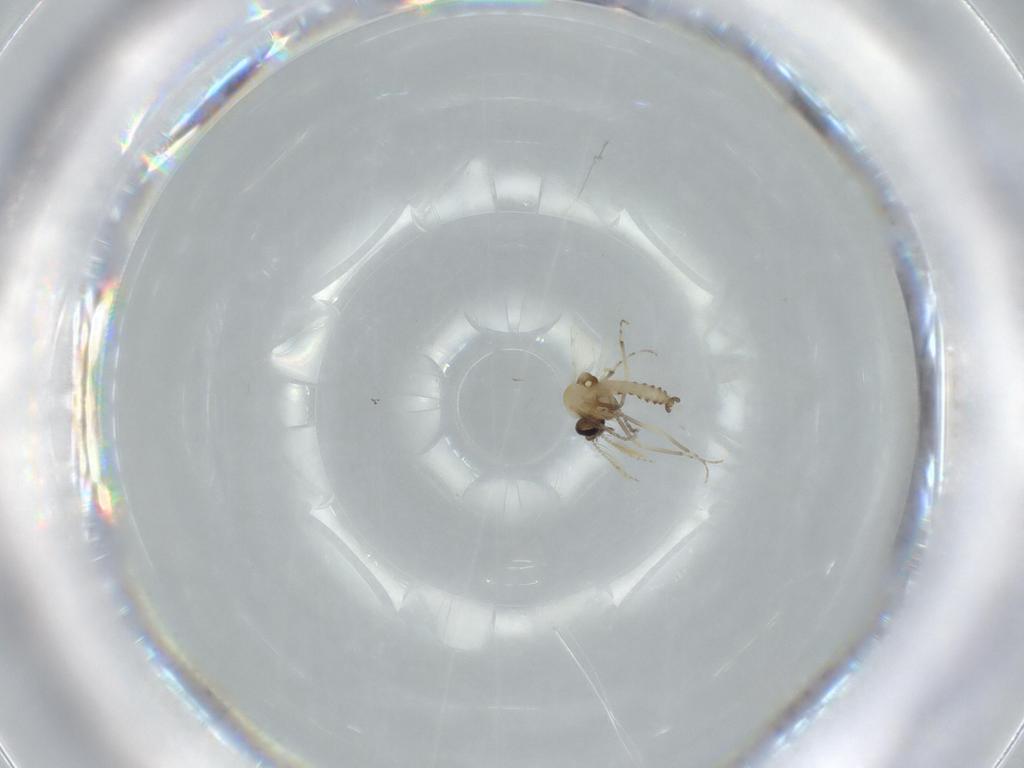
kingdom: Animalia
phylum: Arthropoda
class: Insecta
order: Diptera
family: Ceratopogonidae
